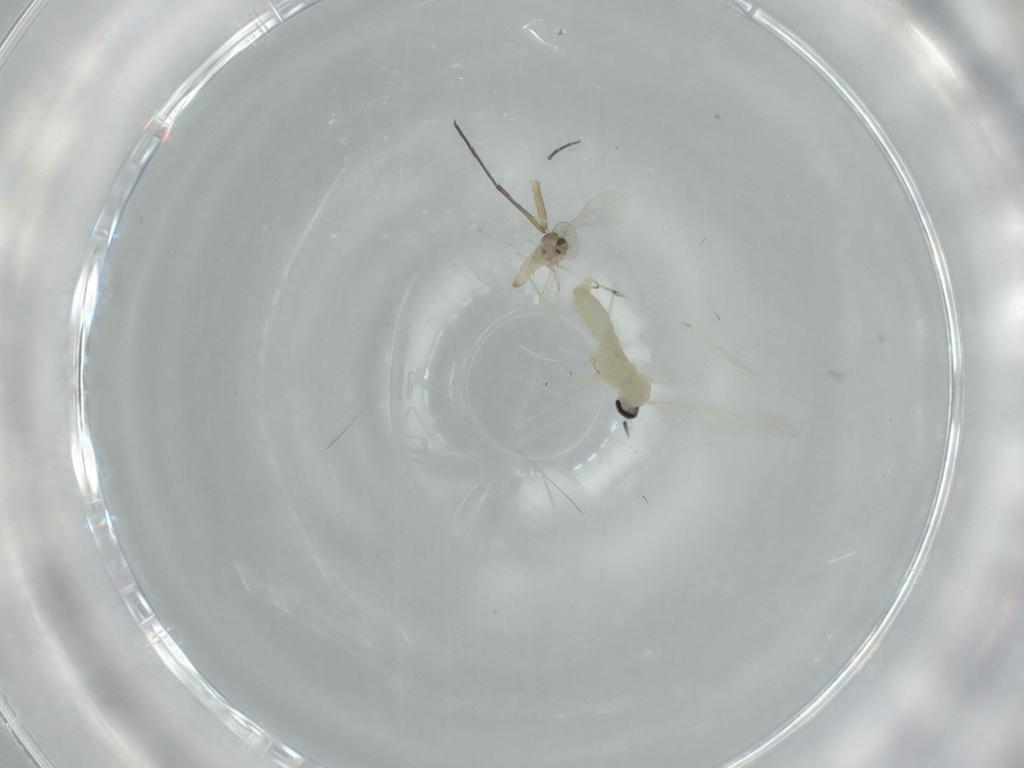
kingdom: Animalia
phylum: Arthropoda
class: Insecta
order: Diptera
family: Cecidomyiidae
